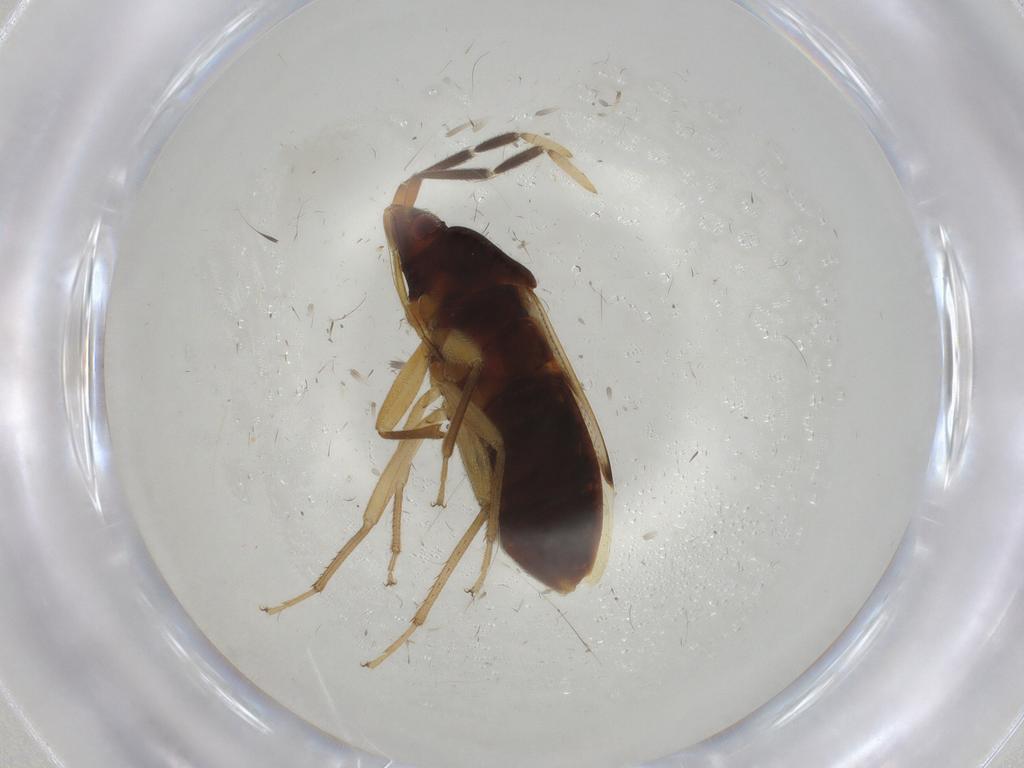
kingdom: Animalia
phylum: Arthropoda
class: Insecta
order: Hemiptera
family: Rhyparochromidae
